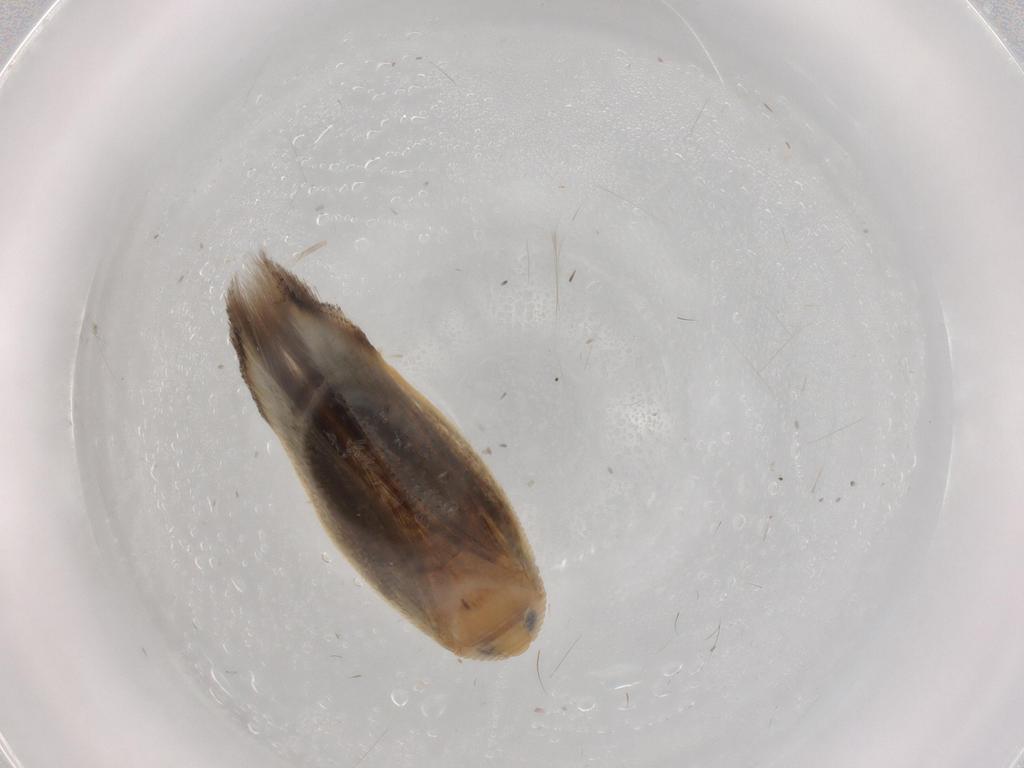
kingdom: Animalia
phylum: Arthropoda
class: Insecta
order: Lepidoptera
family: Opostegidae
